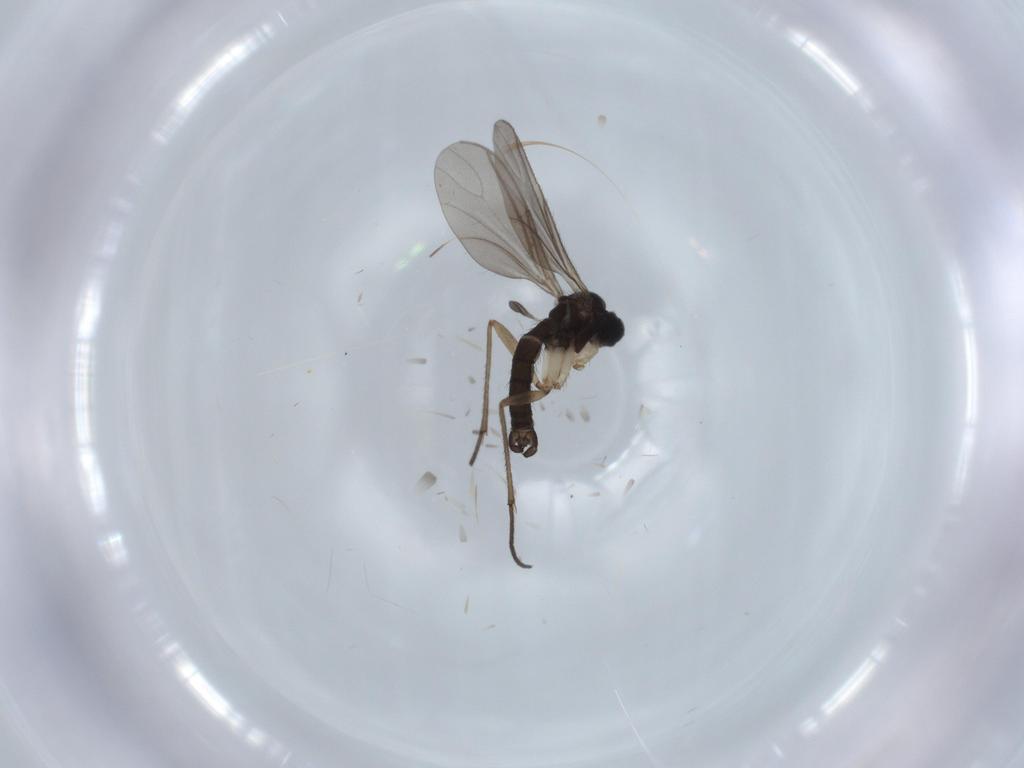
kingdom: Animalia
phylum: Arthropoda
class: Insecta
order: Diptera
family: Sciaridae
